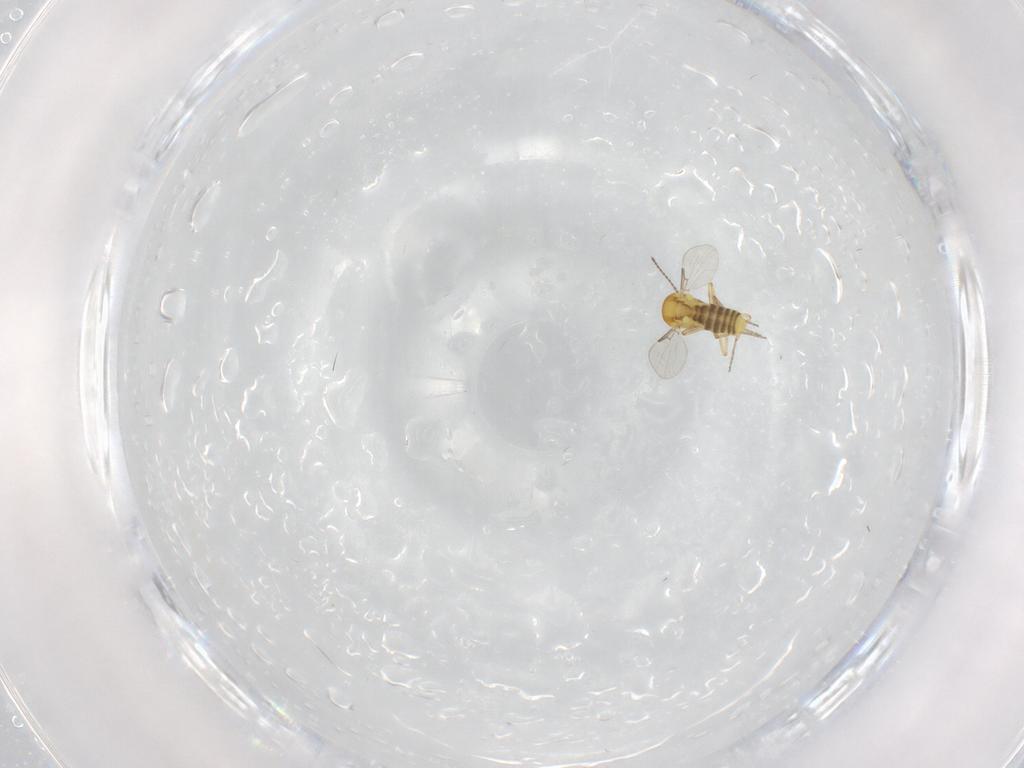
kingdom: Animalia
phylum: Arthropoda
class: Insecta
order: Diptera
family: Ceratopogonidae
